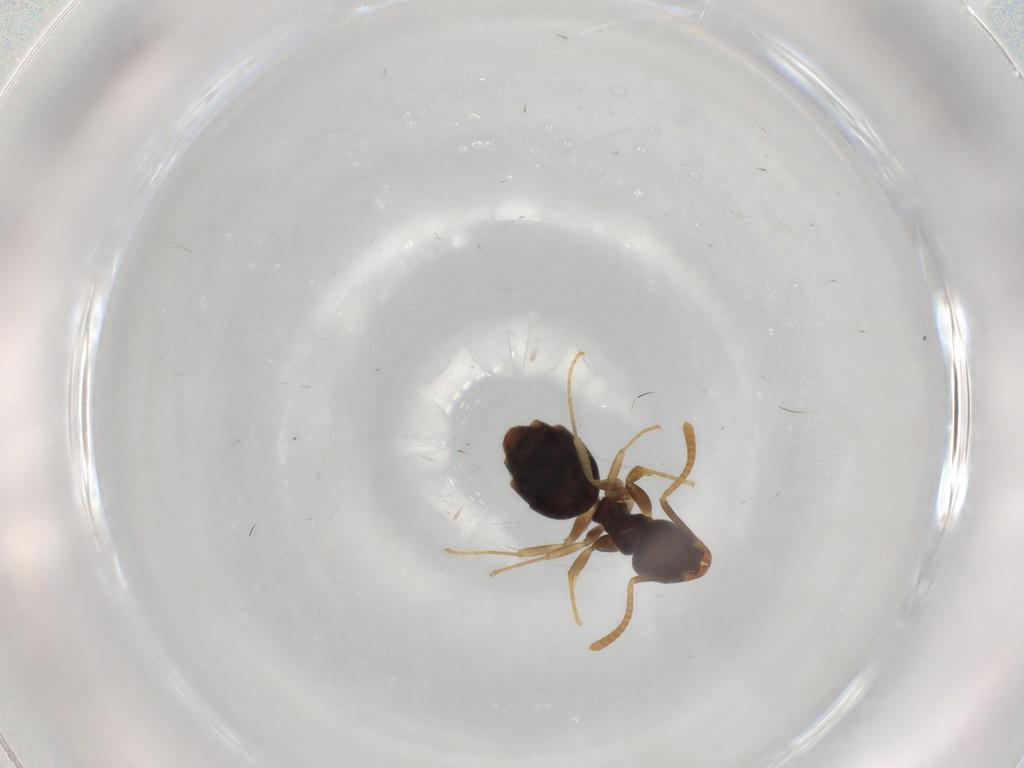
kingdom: Animalia
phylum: Arthropoda
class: Insecta
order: Hymenoptera
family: Formicidae
